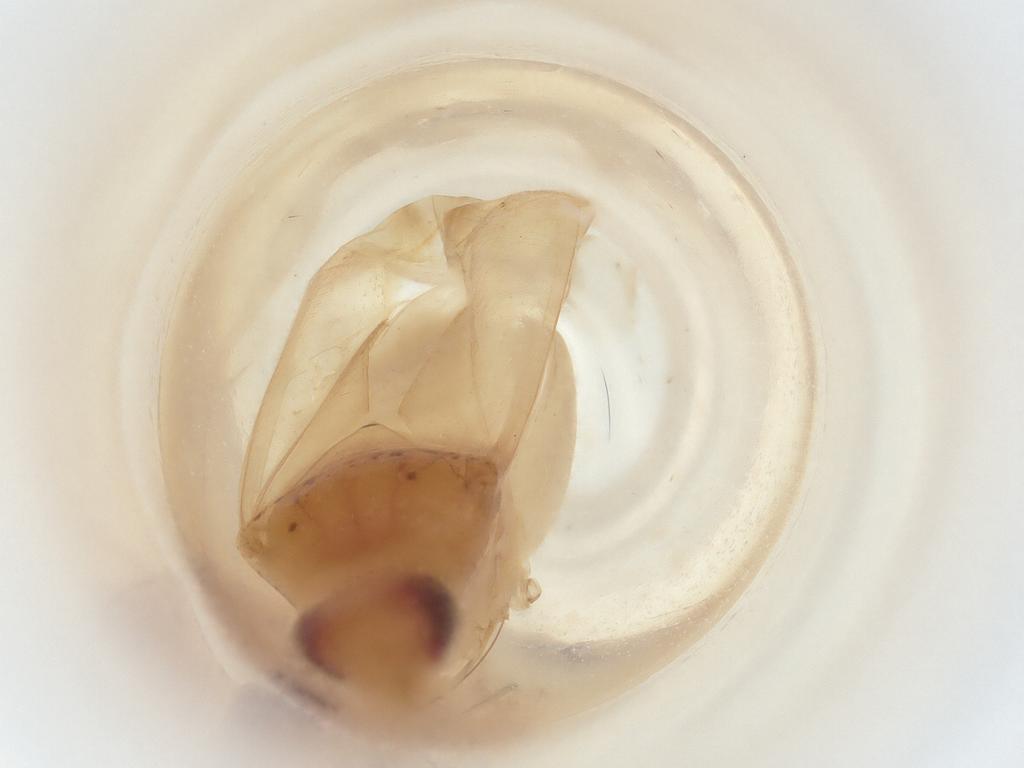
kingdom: Animalia
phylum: Arthropoda
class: Insecta
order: Hemiptera
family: Miridae
